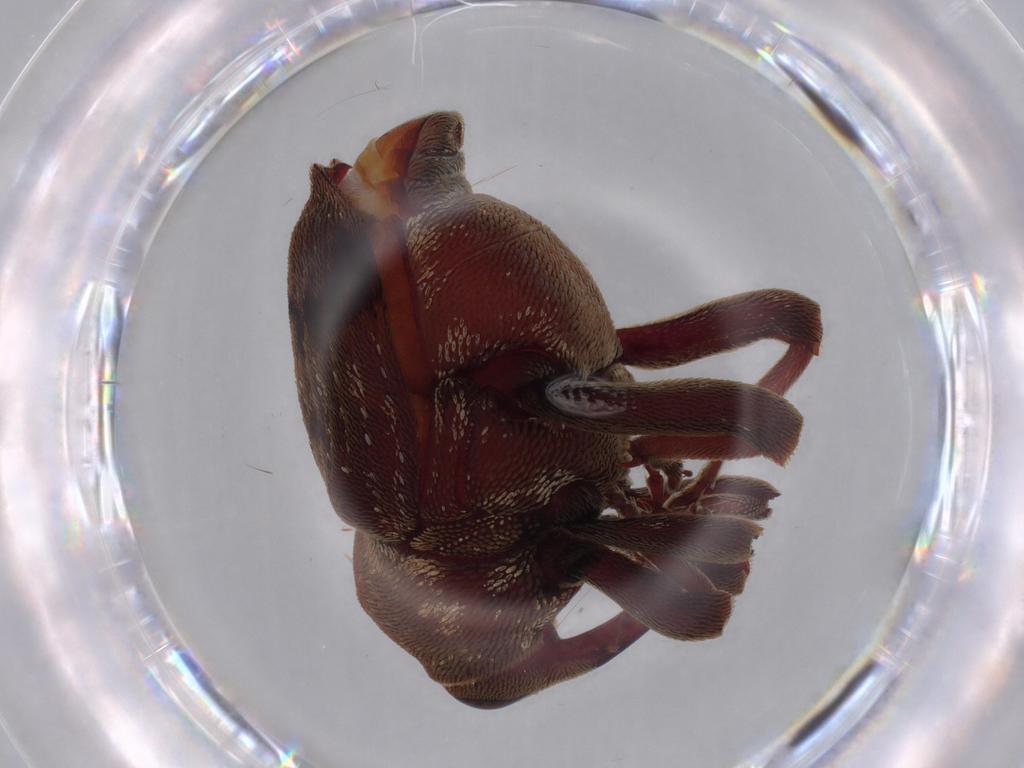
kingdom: Animalia
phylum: Arthropoda
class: Insecta
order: Coleoptera
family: Curculionidae
